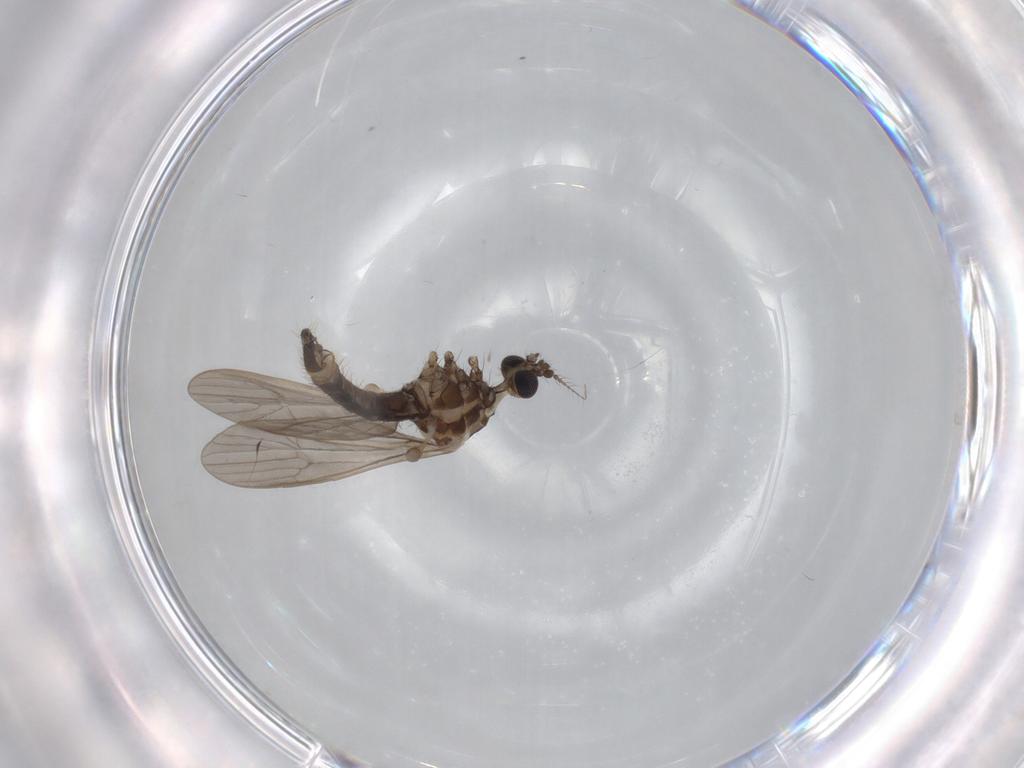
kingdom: Animalia
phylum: Arthropoda
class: Insecta
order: Diptera
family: Limoniidae
